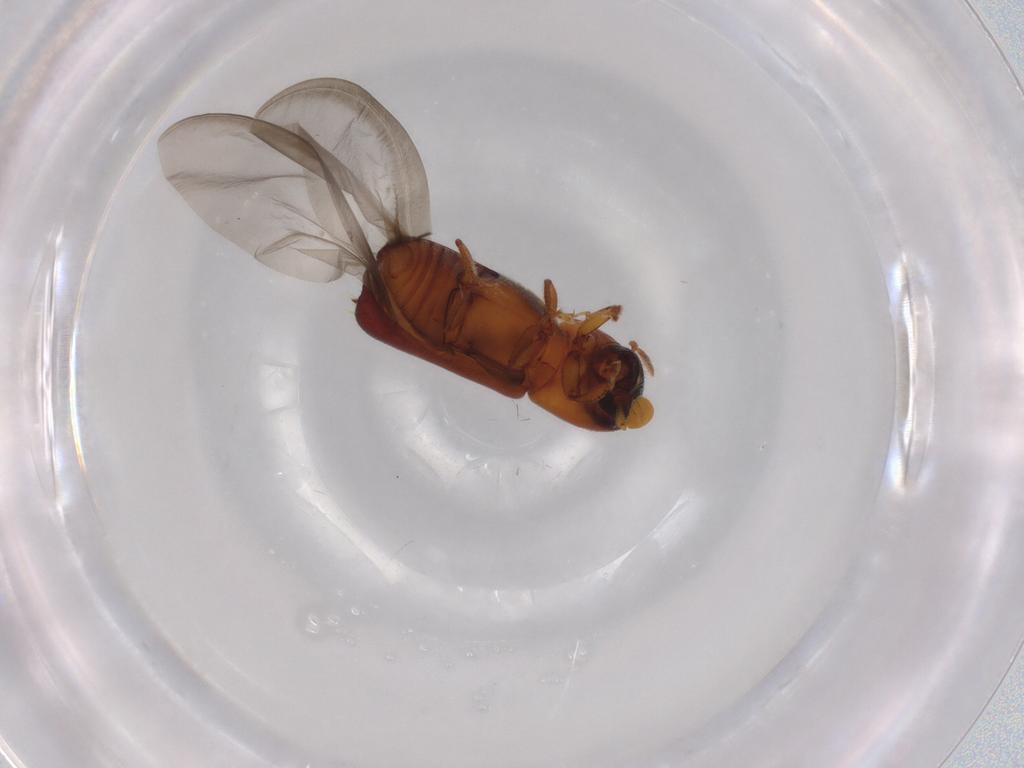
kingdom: Animalia
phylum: Arthropoda
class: Insecta
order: Coleoptera
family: Curculionidae
